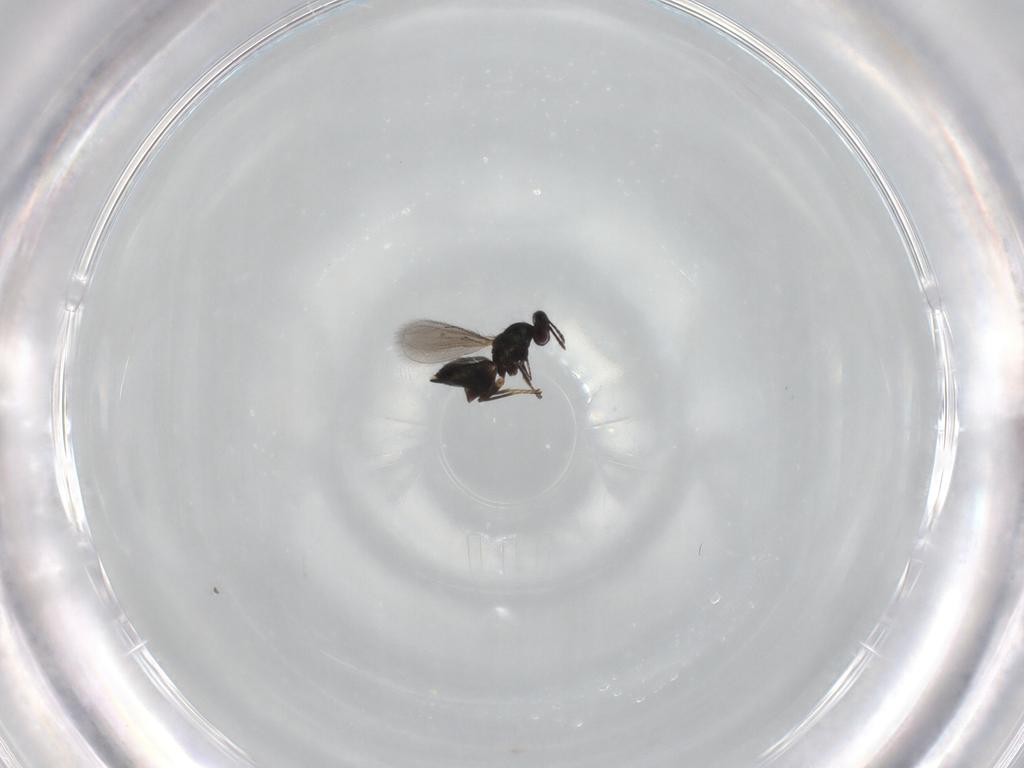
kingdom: Animalia
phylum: Arthropoda
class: Insecta
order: Hymenoptera
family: Eulophidae
